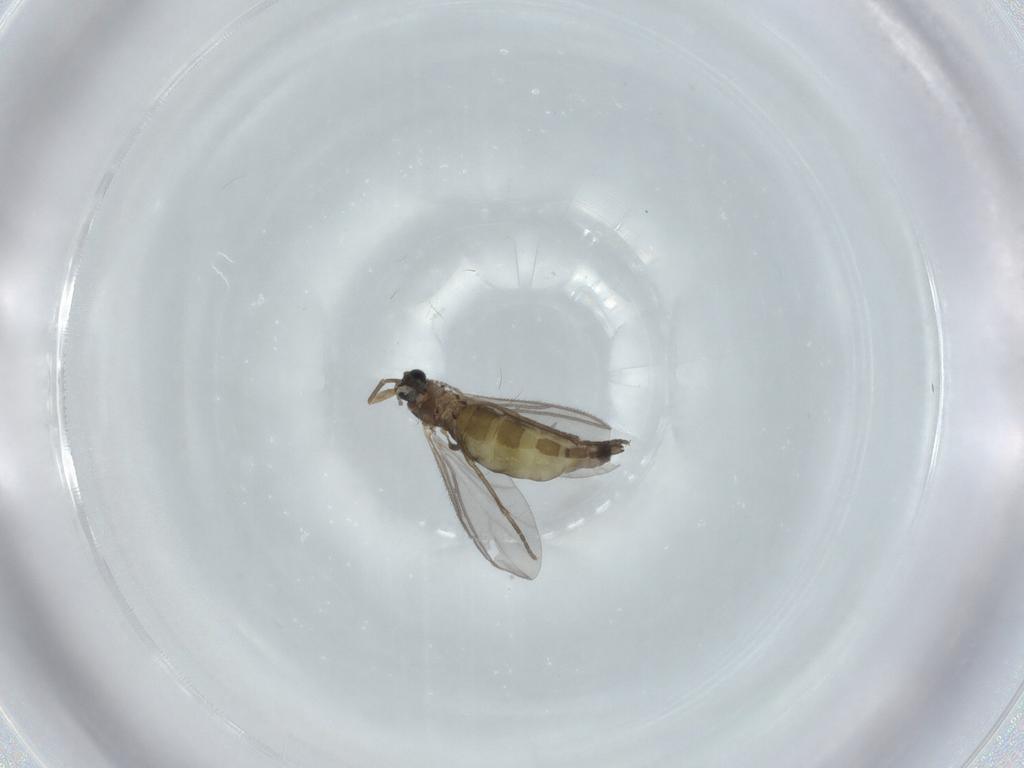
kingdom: Animalia
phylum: Arthropoda
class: Insecta
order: Diptera
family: Sciaridae
